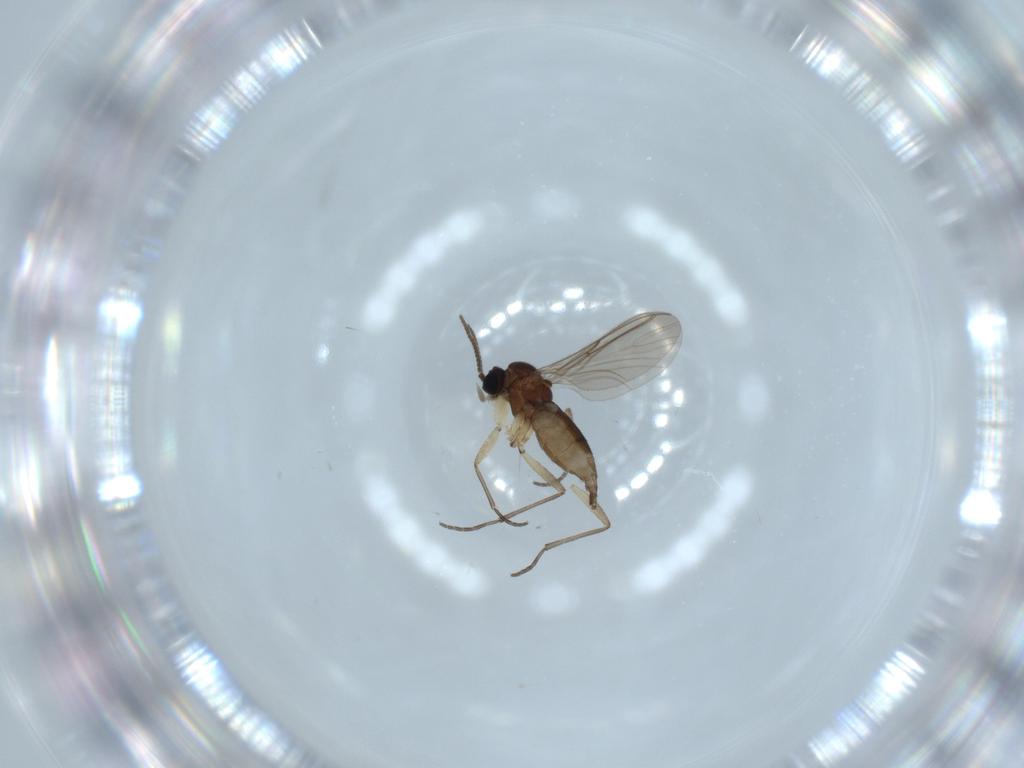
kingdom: Animalia
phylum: Arthropoda
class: Insecta
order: Diptera
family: Sciaridae
